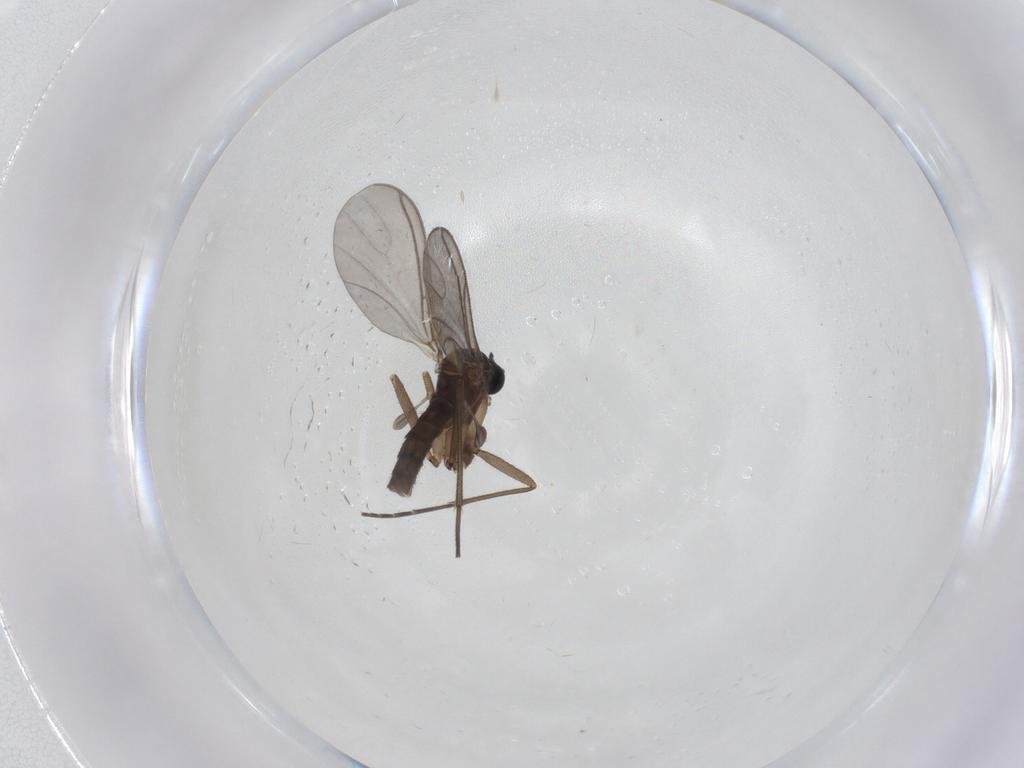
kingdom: Animalia
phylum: Arthropoda
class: Insecta
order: Diptera
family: Sciaridae
